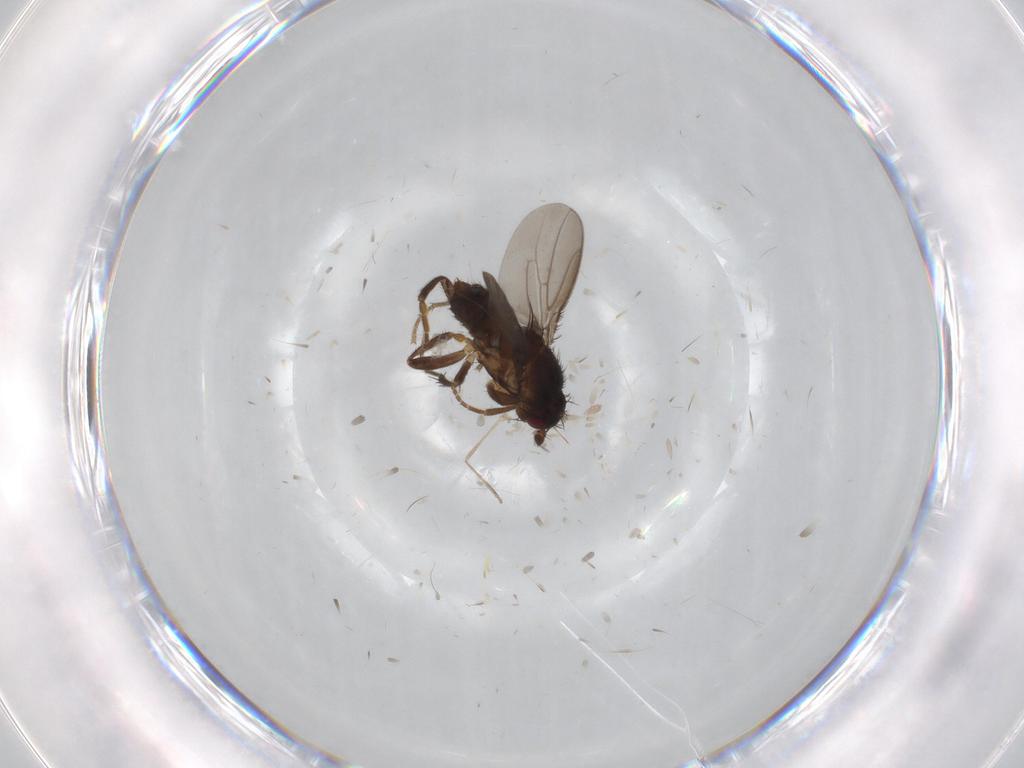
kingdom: Animalia
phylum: Arthropoda
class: Insecta
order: Diptera
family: Sphaeroceridae
